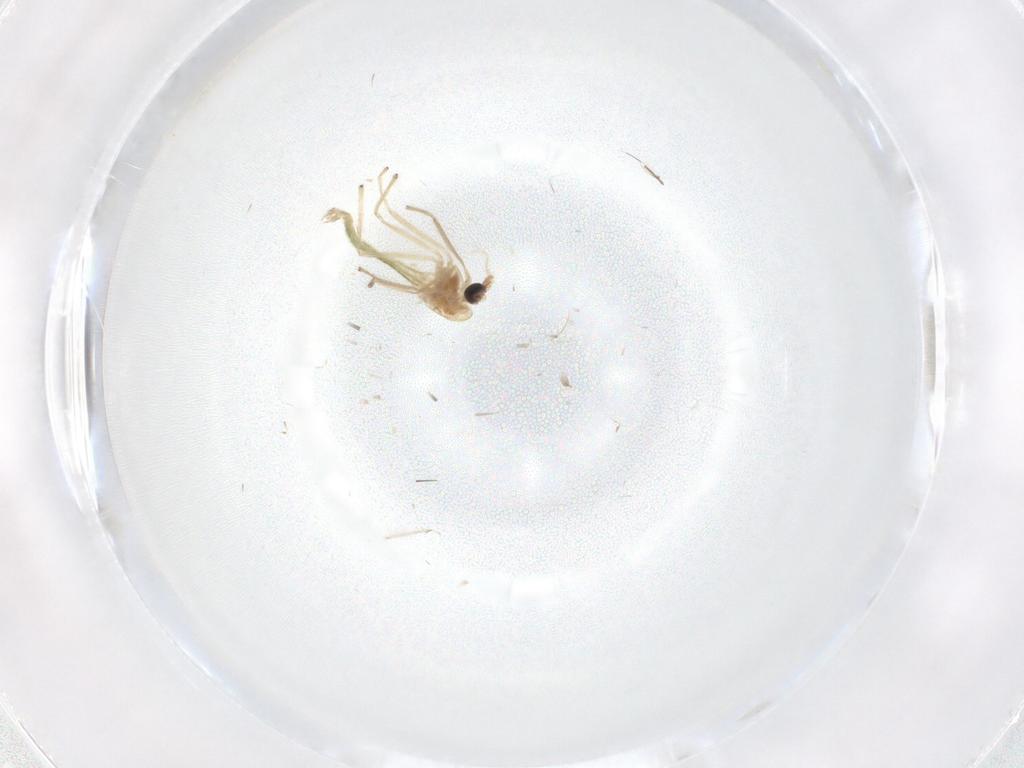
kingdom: Animalia
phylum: Arthropoda
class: Insecta
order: Diptera
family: Chironomidae
